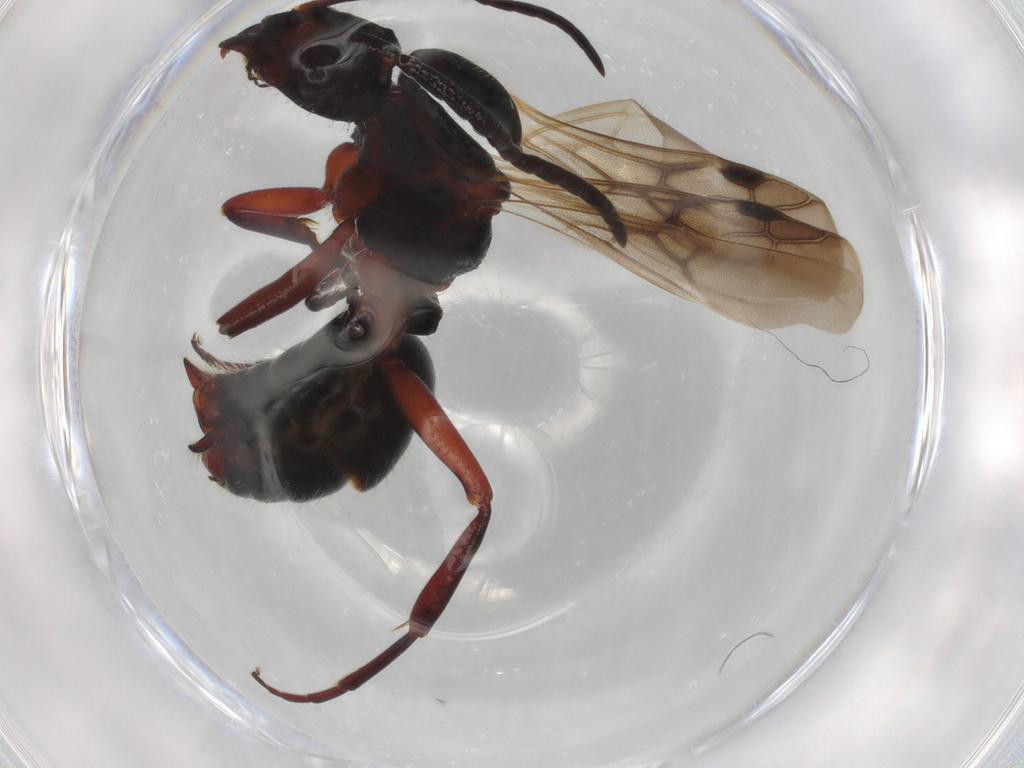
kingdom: Animalia
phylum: Arthropoda
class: Insecta
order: Hymenoptera
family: Formicidae
